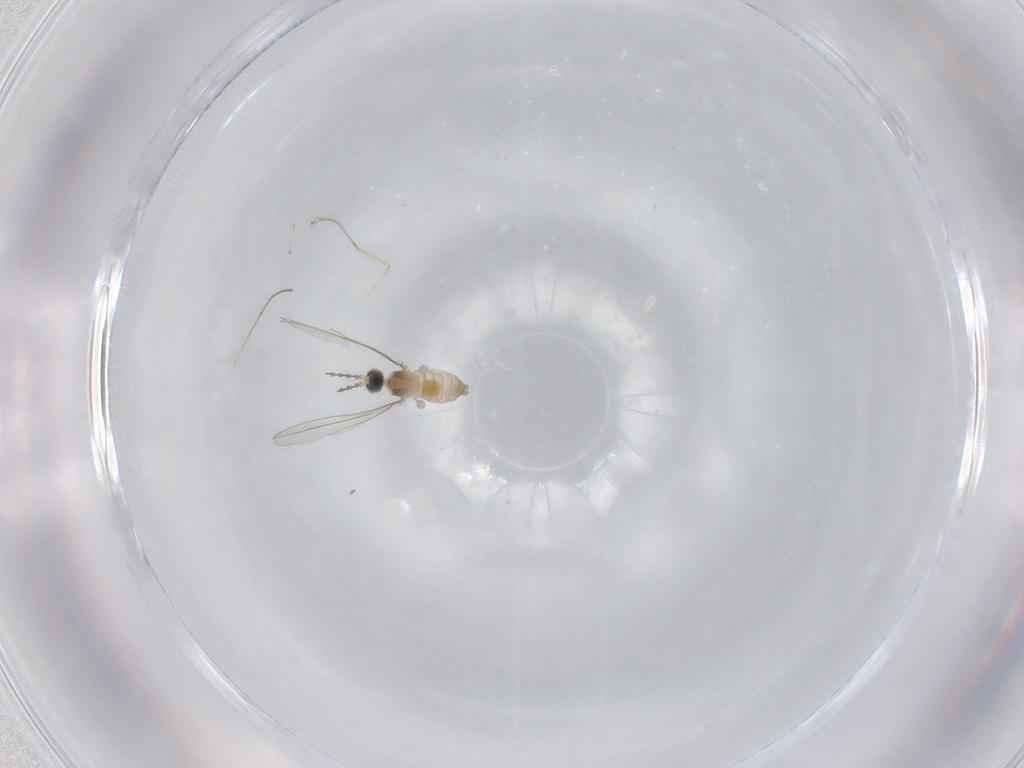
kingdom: Animalia
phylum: Arthropoda
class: Insecta
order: Diptera
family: Cecidomyiidae
